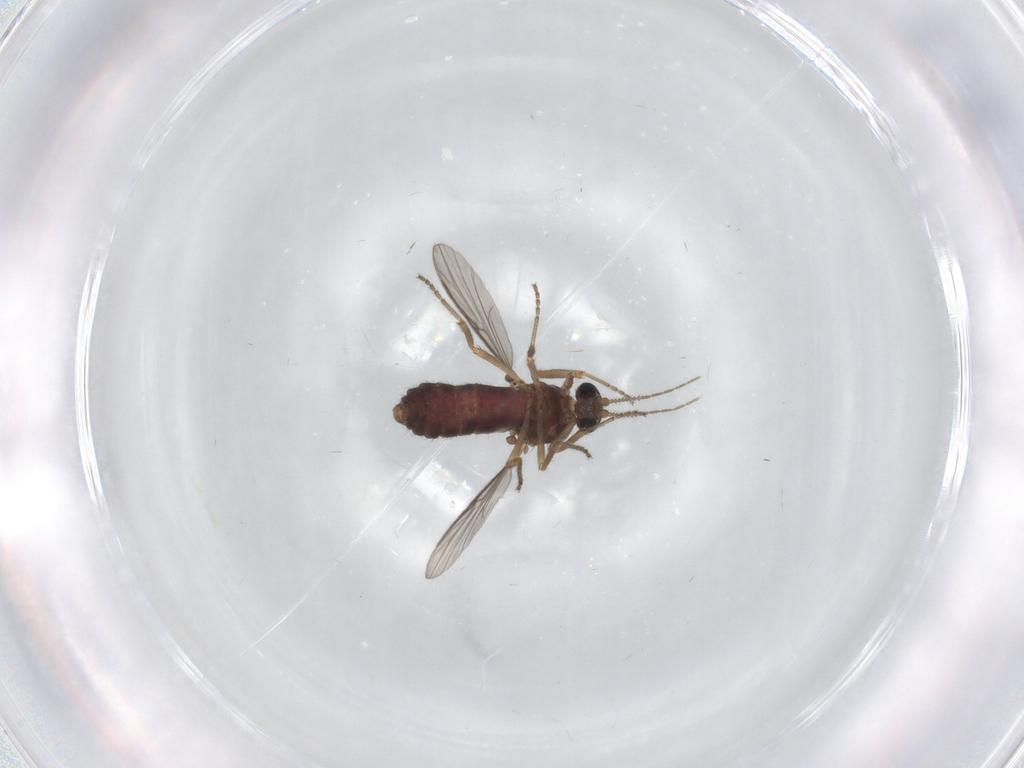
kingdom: Animalia
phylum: Arthropoda
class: Insecta
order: Diptera
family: Ceratopogonidae
